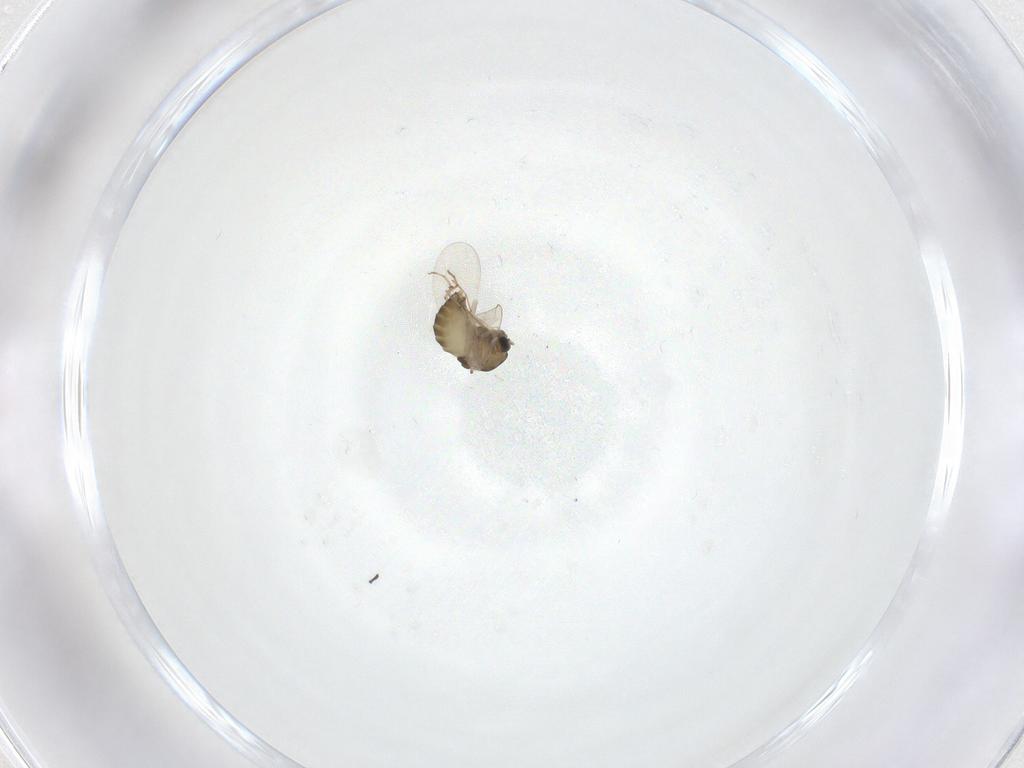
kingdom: Animalia
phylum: Arthropoda
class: Insecta
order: Diptera
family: Chironomidae
